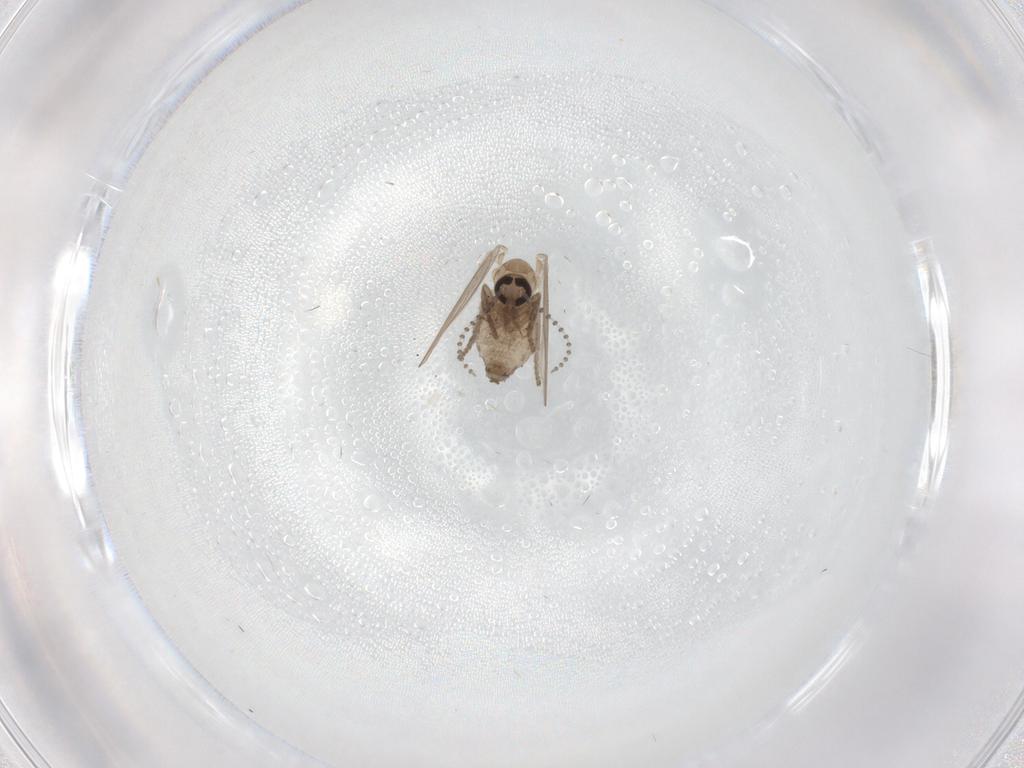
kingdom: Animalia
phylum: Arthropoda
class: Insecta
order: Diptera
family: Psychodidae
